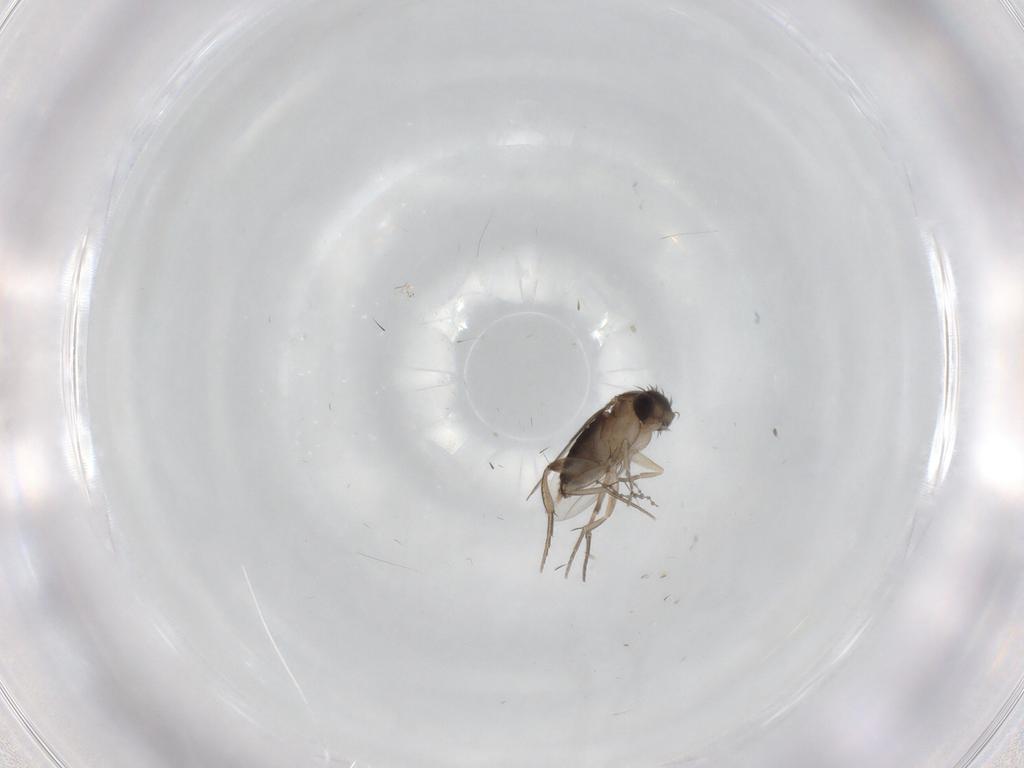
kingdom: Animalia
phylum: Arthropoda
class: Insecta
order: Diptera
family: Phoridae
